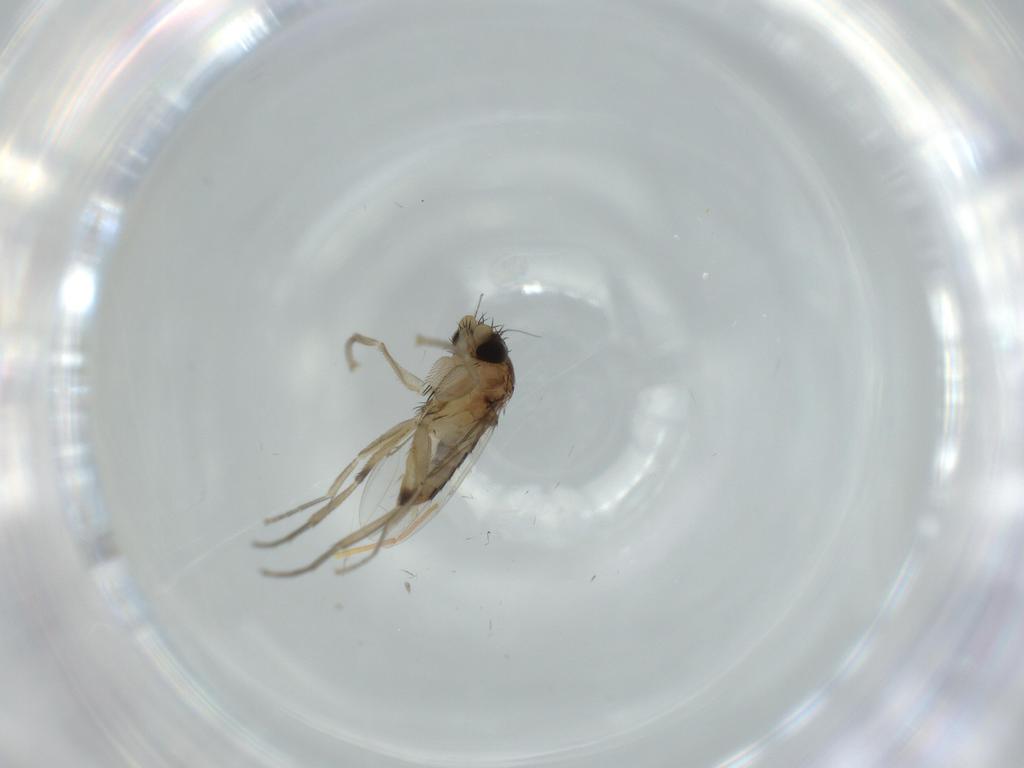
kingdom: Animalia
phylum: Arthropoda
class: Insecta
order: Diptera
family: Phoridae
